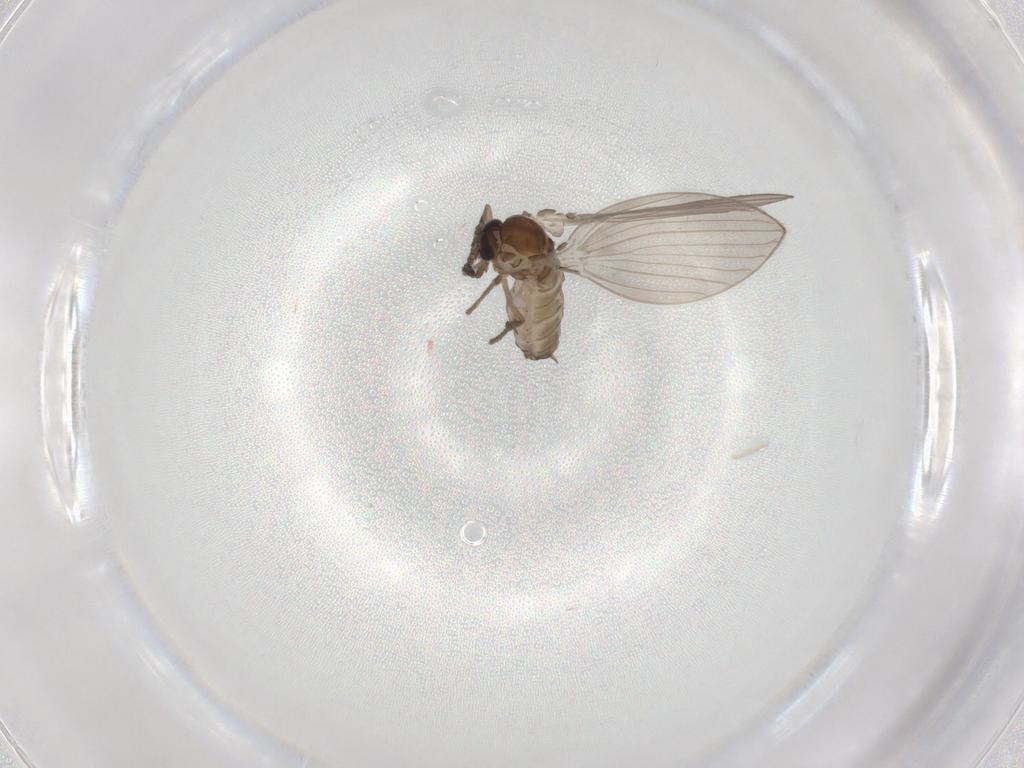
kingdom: Animalia
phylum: Arthropoda
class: Insecta
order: Diptera
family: Psychodidae
